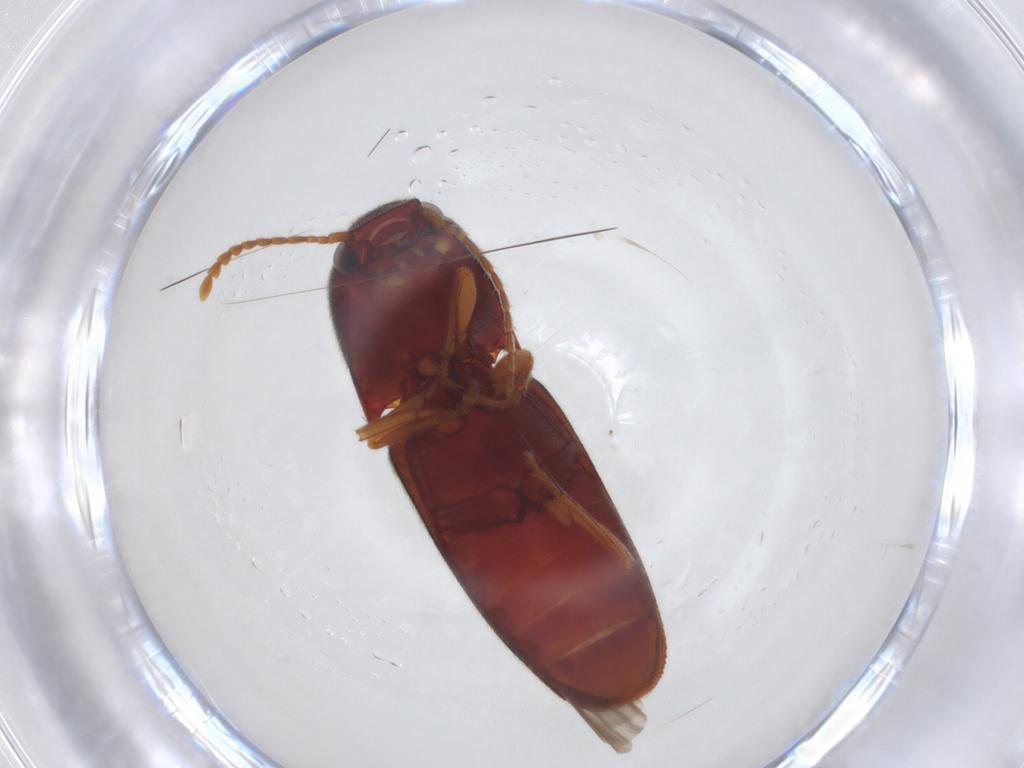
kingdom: Animalia
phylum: Arthropoda
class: Insecta
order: Coleoptera
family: Elateridae
